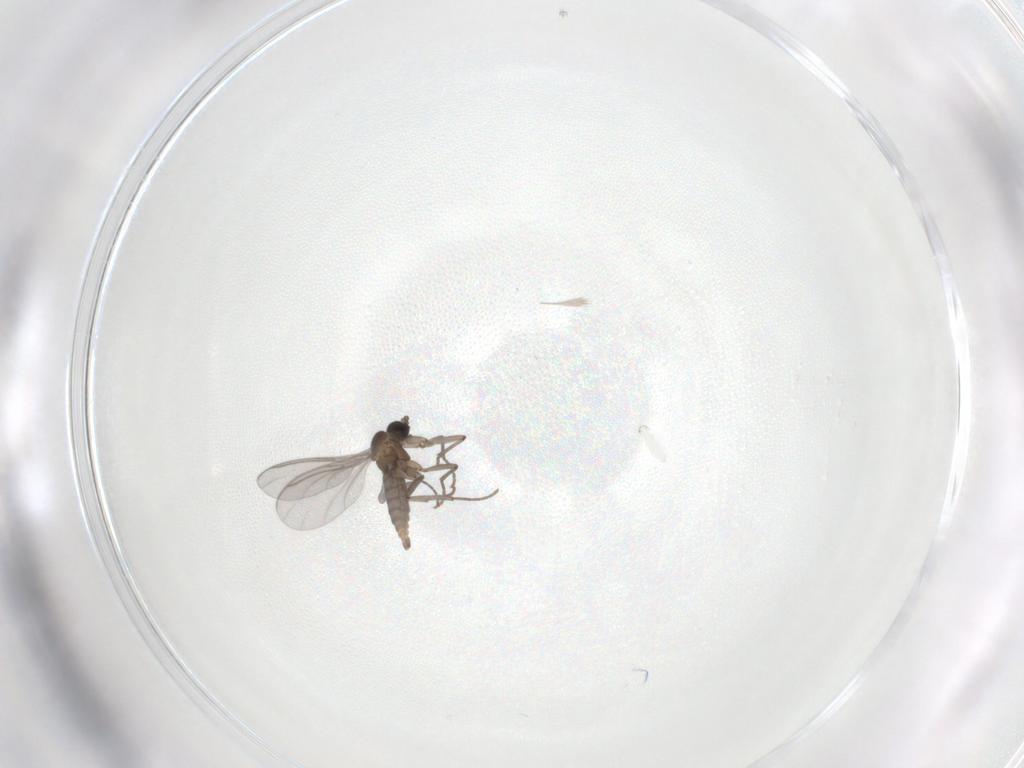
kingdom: Animalia
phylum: Arthropoda
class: Insecta
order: Diptera
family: Sciaridae
